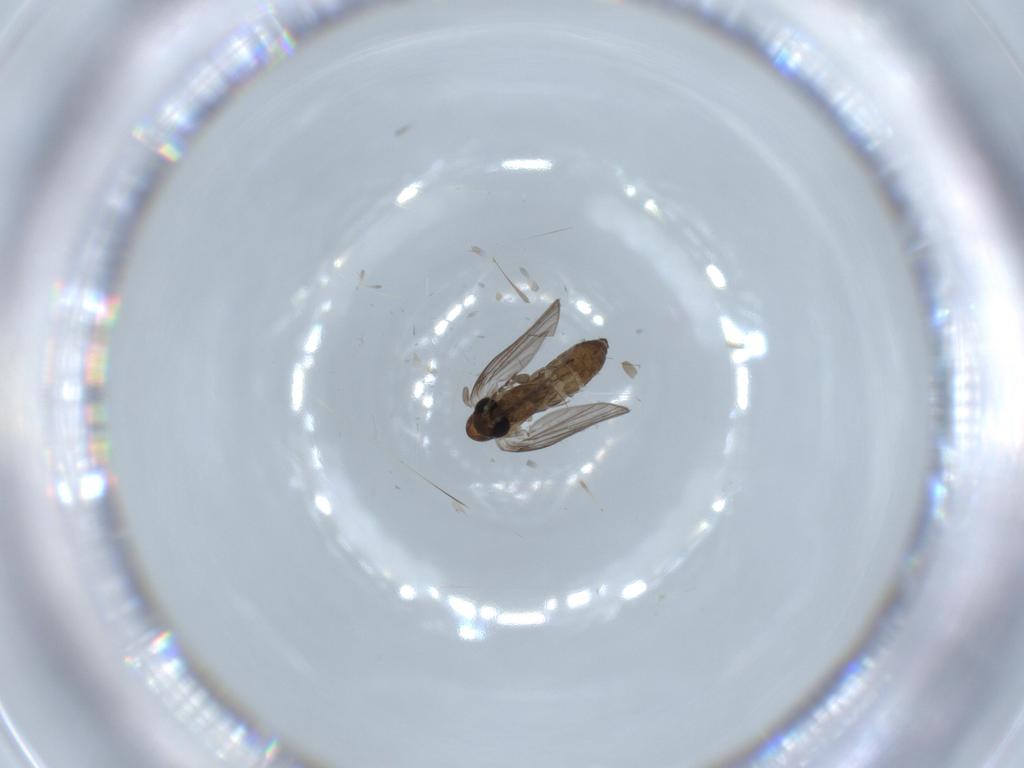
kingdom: Animalia
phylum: Arthropoda
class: Insecta
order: Diptera
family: Psychodidae
